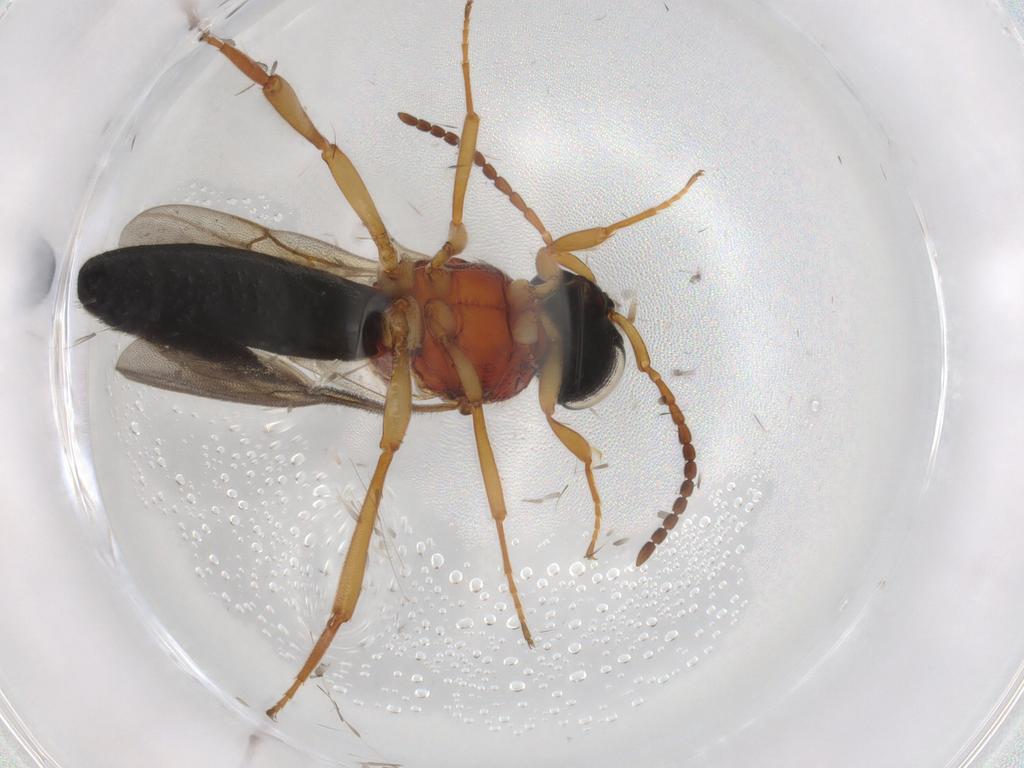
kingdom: Animalia
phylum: Arthropoda
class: Insecta
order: Hymenoptera
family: Scelionidae
